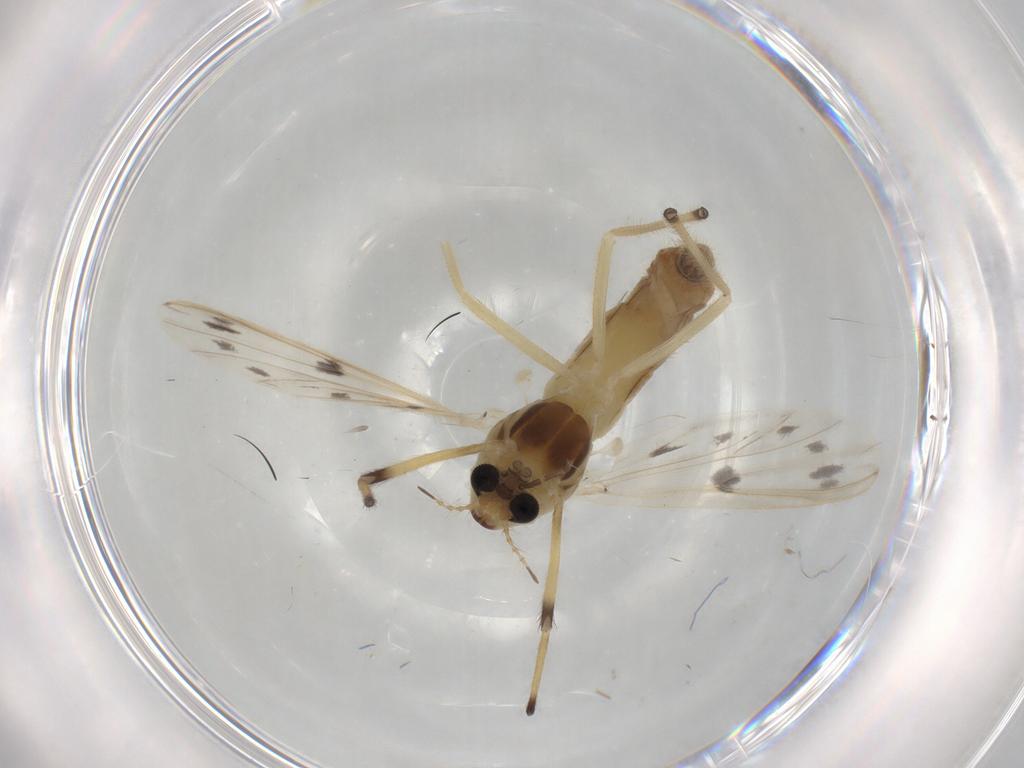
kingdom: Animalia
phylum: Arthropoda
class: Insecta
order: Diptera
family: Chironomidae
